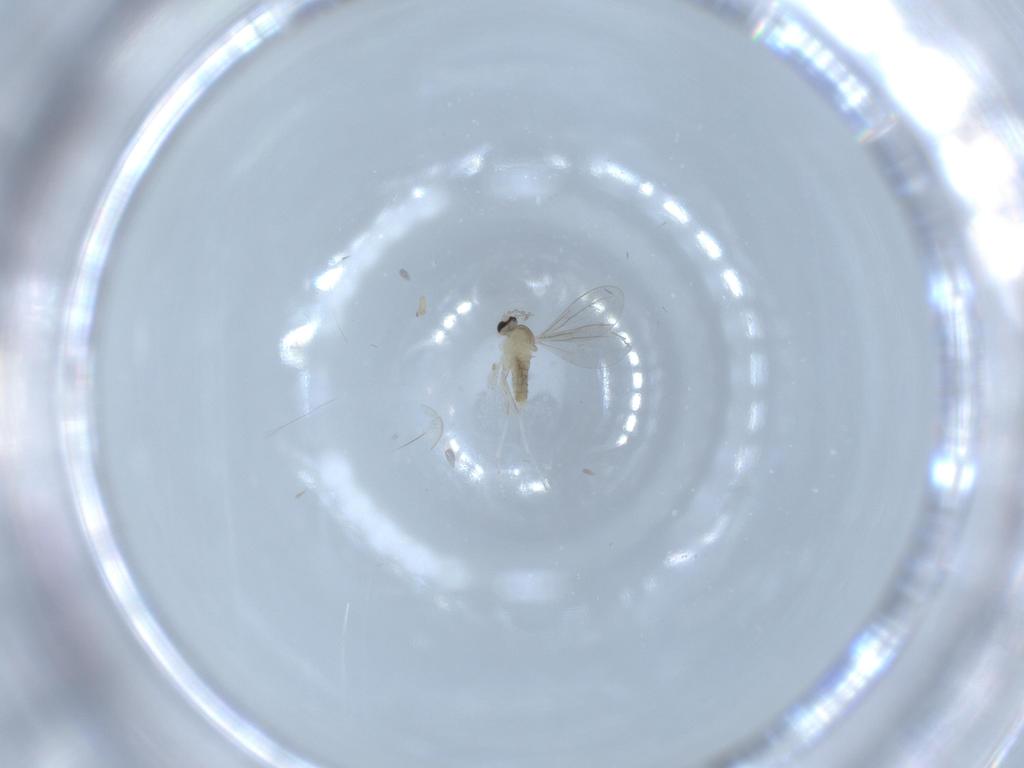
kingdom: Animalia
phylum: Arthropoda
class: Insecta
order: Diptera
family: Cecidomyiidae
